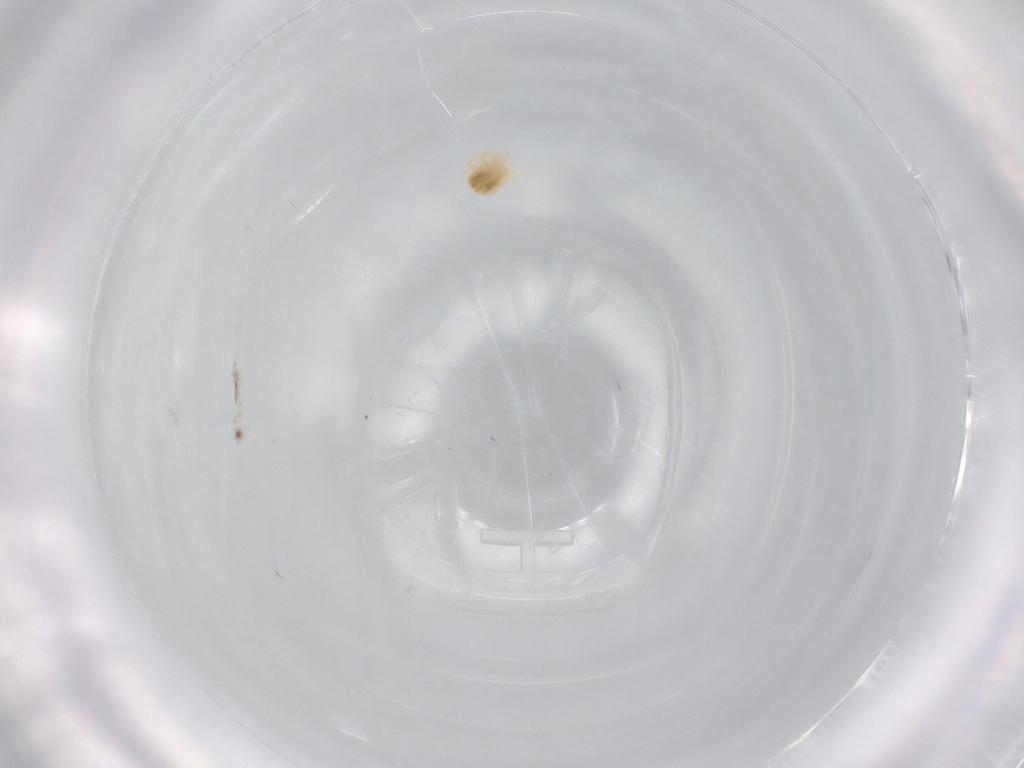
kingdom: Animalia
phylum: Arthropoda
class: Arachnida
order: Trombidiformes
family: Anystidae
